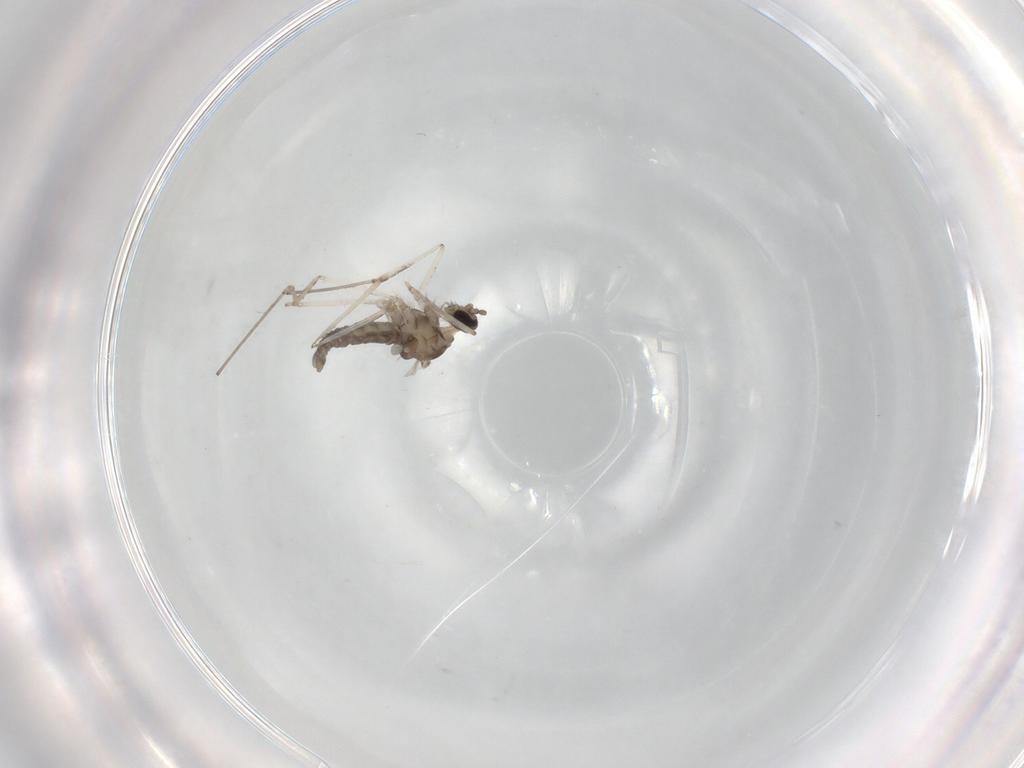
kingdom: Animalia
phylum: Arthropoda
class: Insecta
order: Diptera
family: Cecidomyiidae
